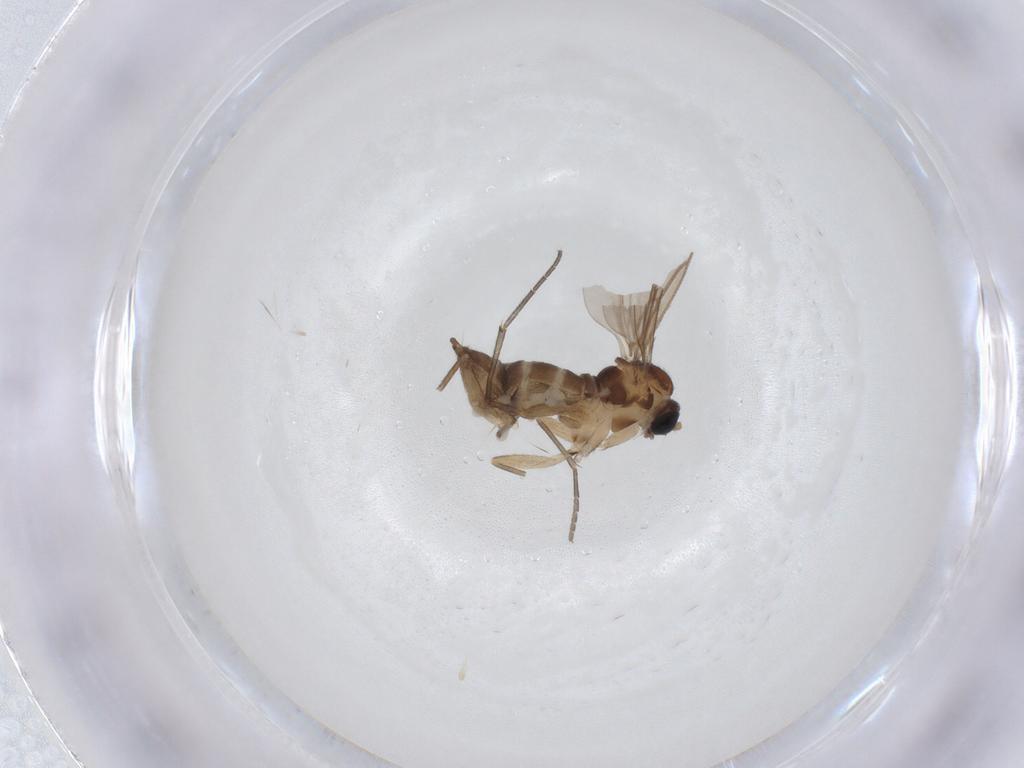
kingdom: Animalia
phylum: Arthropoda
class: Insecta
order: Diptera
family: Sciaridae
